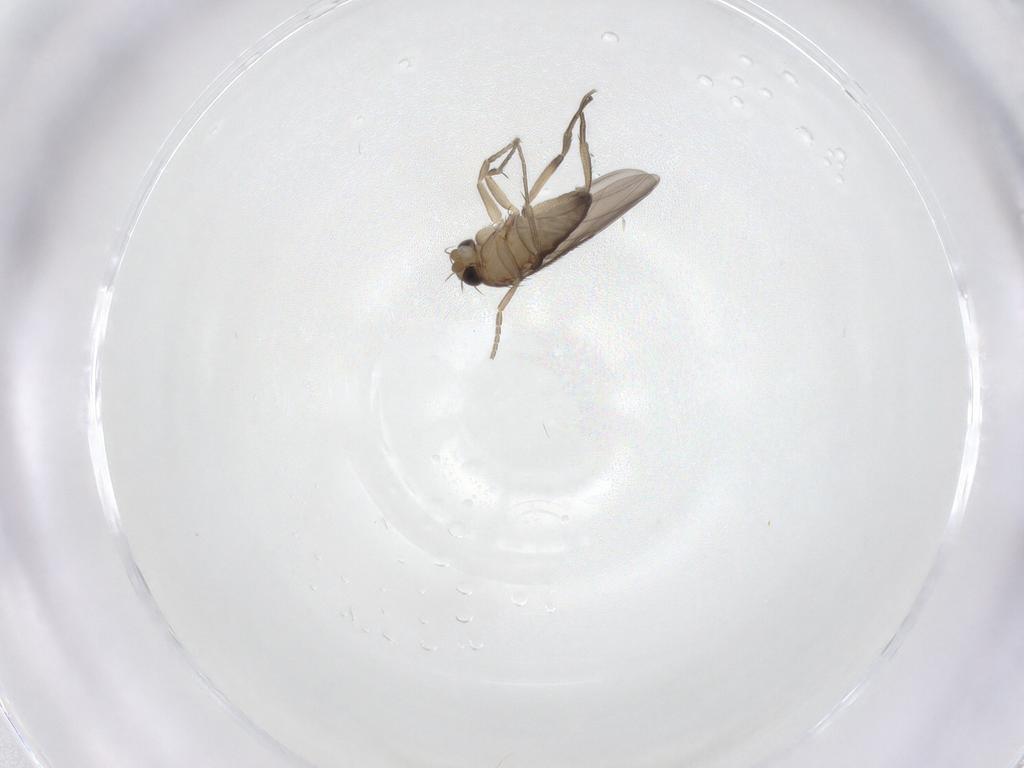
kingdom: Animalia
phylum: Arthropoda
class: Insecta
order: Diptera
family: Phoridae
